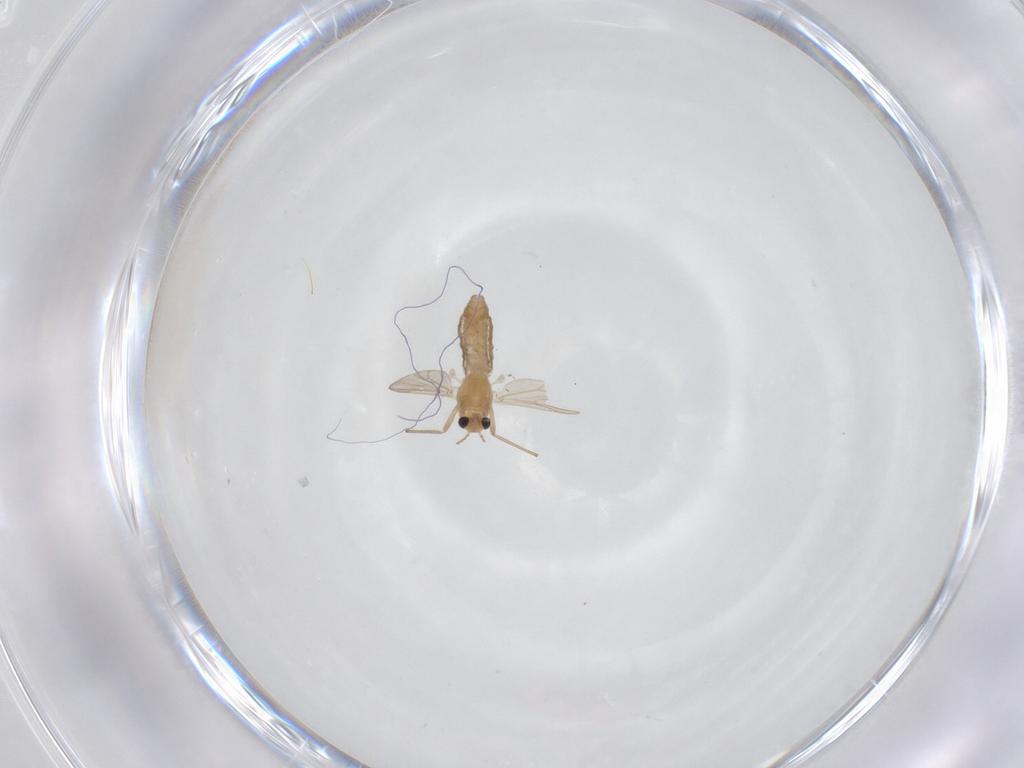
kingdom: Animalia
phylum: Arthropoda
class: Insecta
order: Diptera
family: Chironomidae
